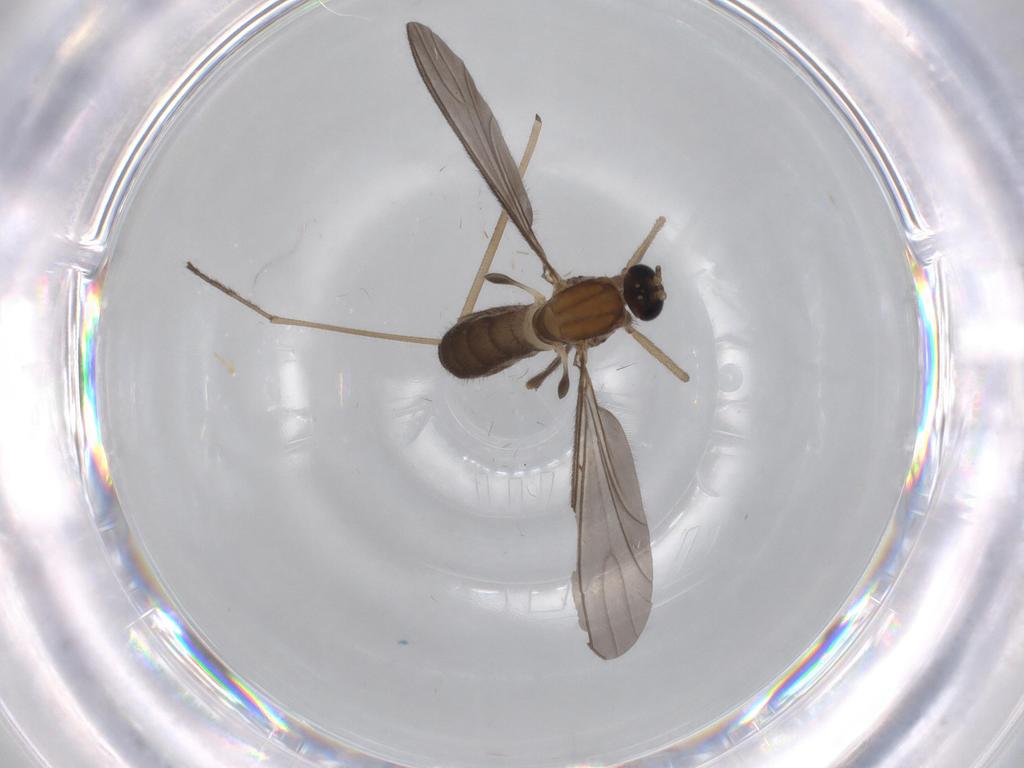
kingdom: Animalia
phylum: Arthropoda
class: Insecta
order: Diptera
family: Sciaridae
